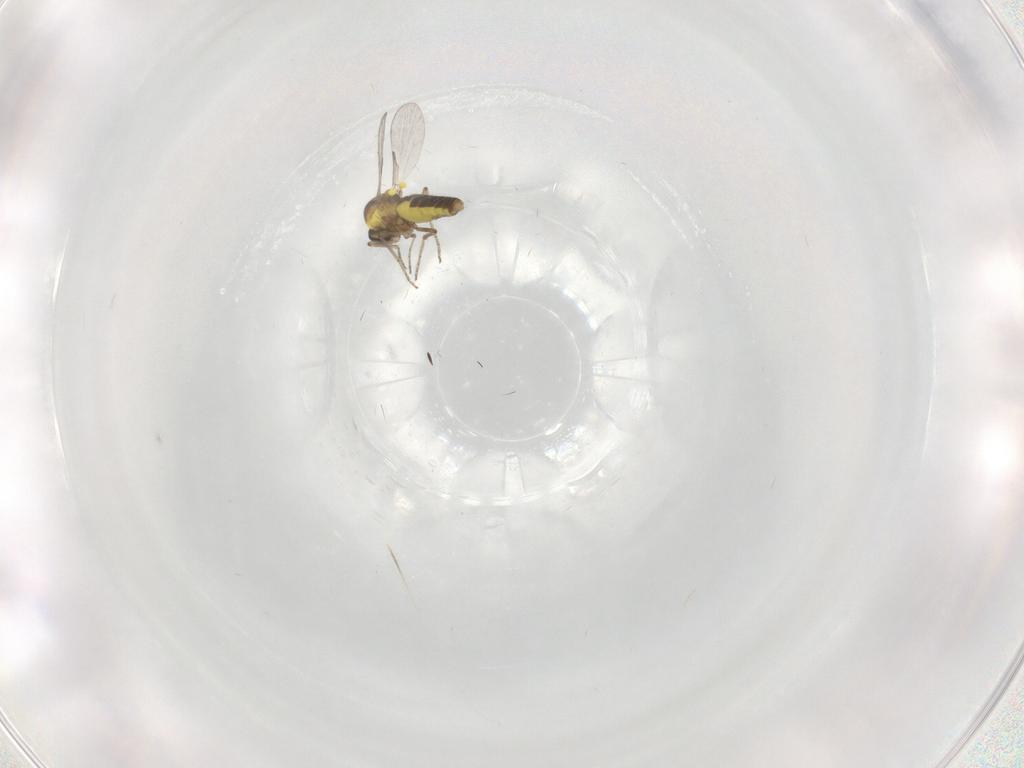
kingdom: Animalia
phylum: Arthropoda
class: Insecta
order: Diptera
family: Ceratopogonidae
